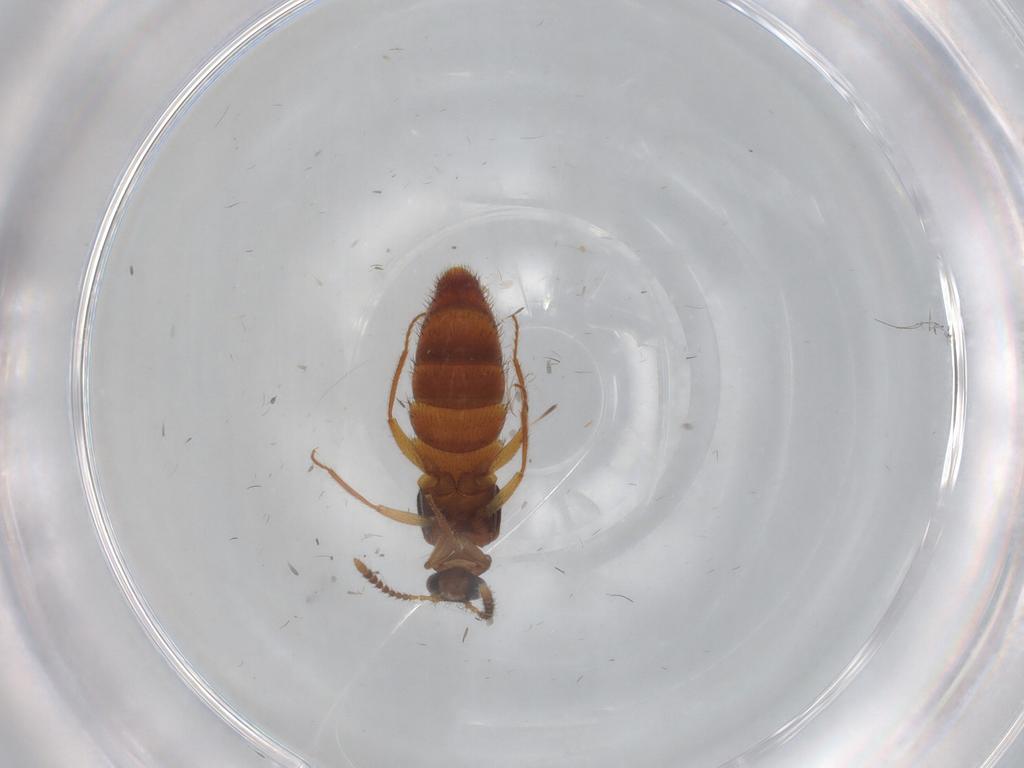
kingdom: Animalia
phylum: Arthropoda
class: Insecta
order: Coleoptera
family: Staphylinidae
